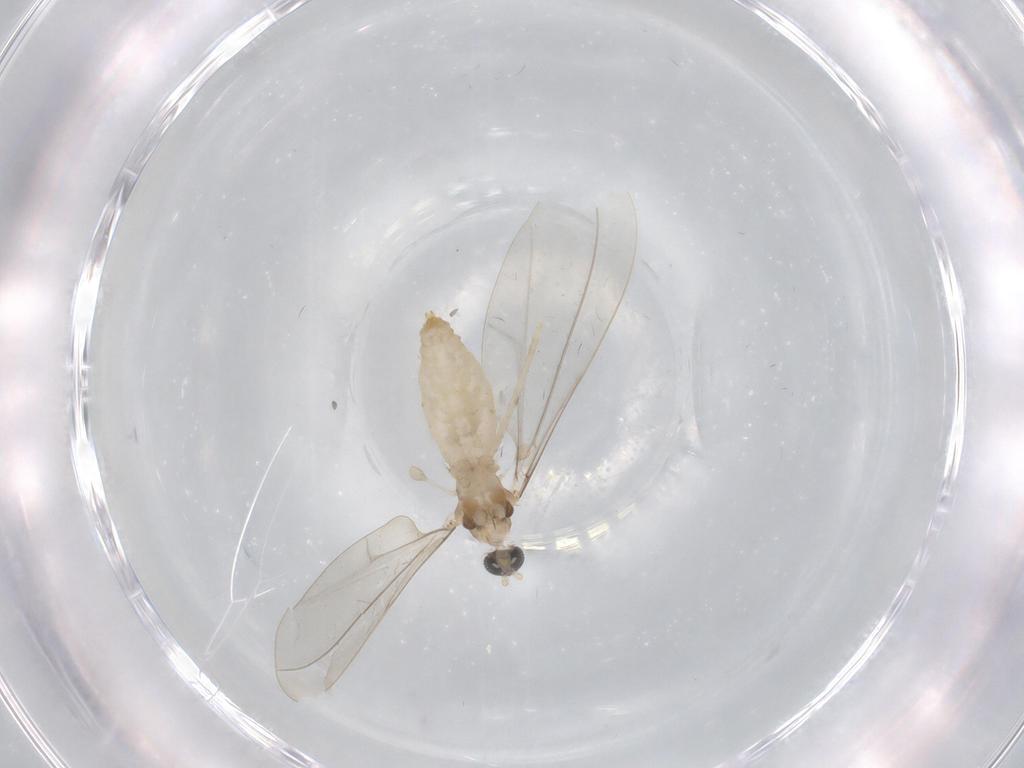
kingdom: Animalia
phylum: Arthropoda
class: Insecta
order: Diptera
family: Cecidomyiidae
